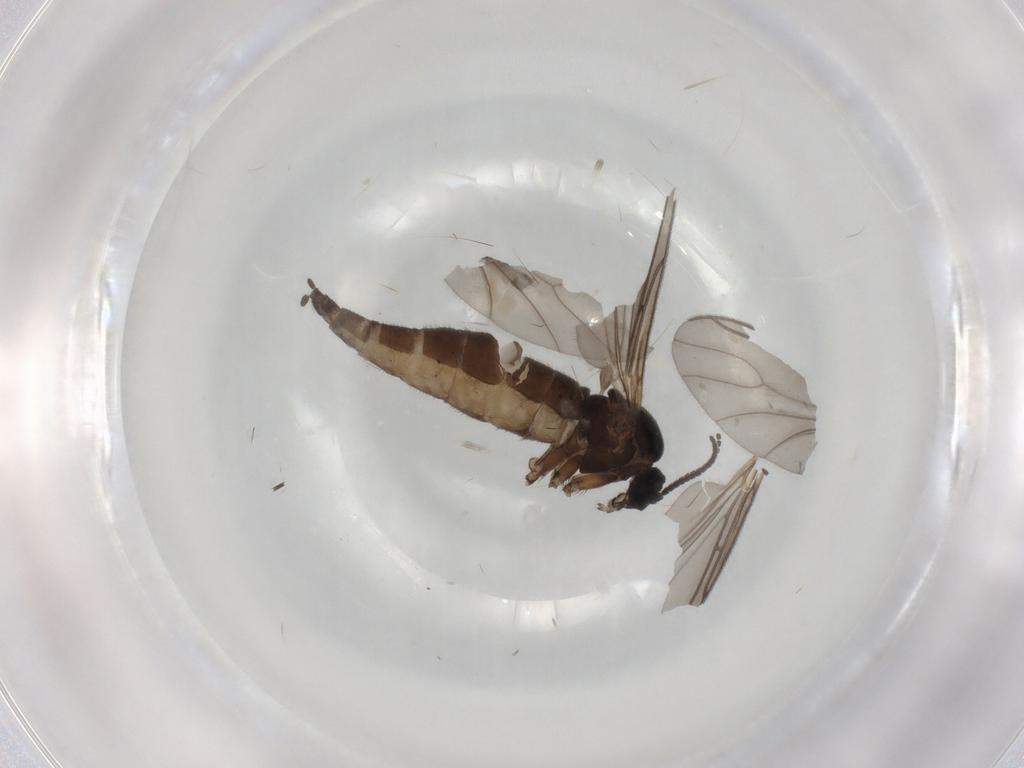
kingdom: Animalia
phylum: Arthropoda
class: Insecta
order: Diptera
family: Sciaridae
